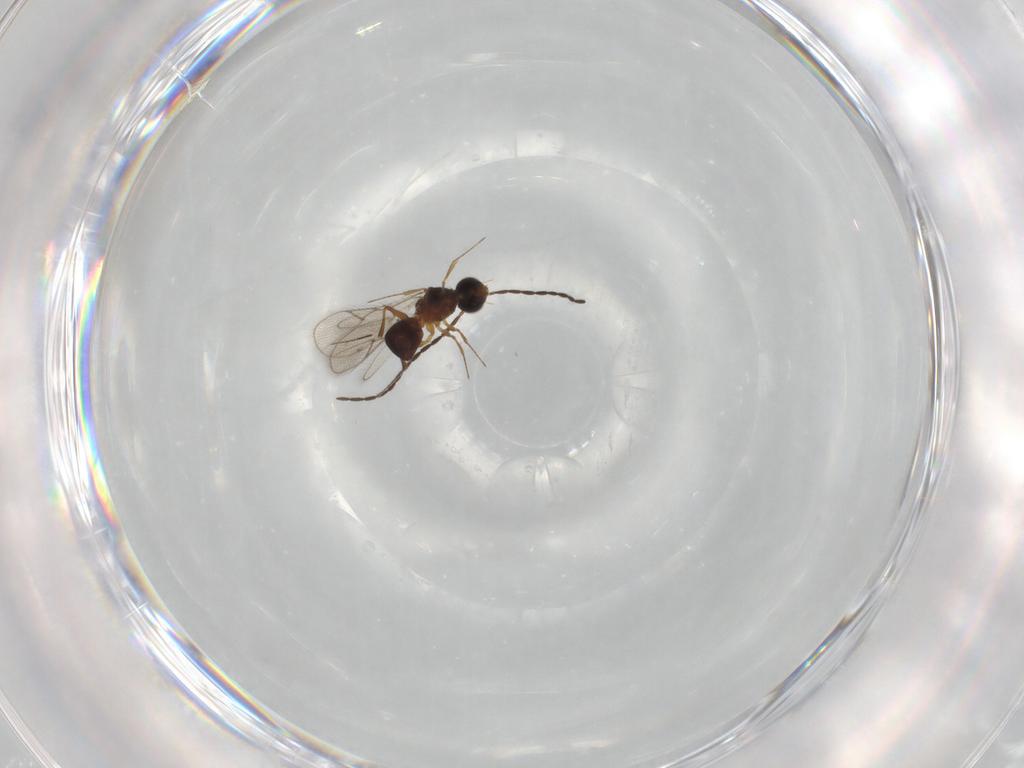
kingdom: Animalia
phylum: Arthropoda
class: Insecta
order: Hymenoptera
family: Figitidae
